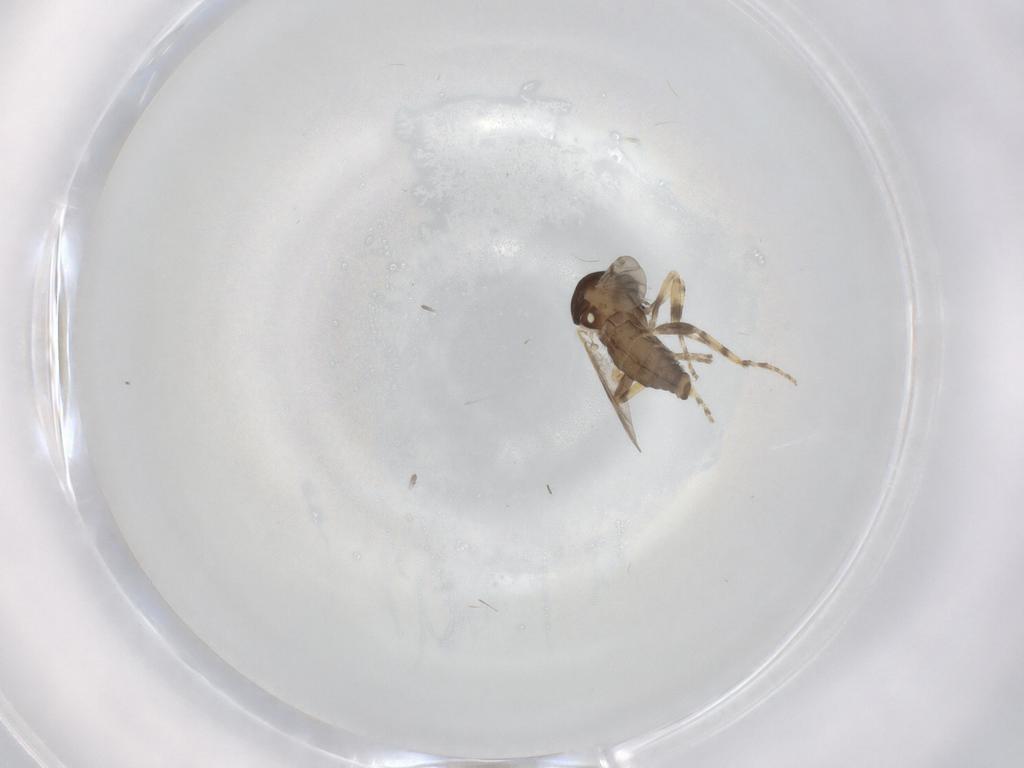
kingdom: Animalia
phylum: Arthropoda
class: Insecta
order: Diptera
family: Ceratopogonidae
